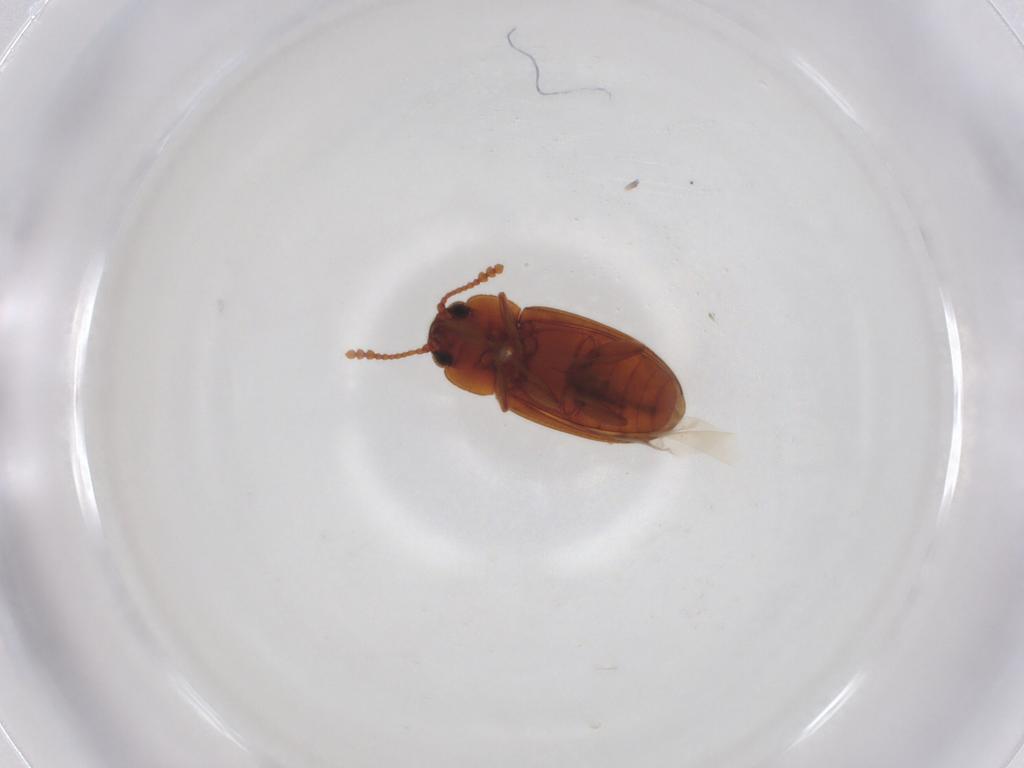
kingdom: Animalia
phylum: Arthropoda
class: Insecta
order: Coleoptera
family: Erotylidae
